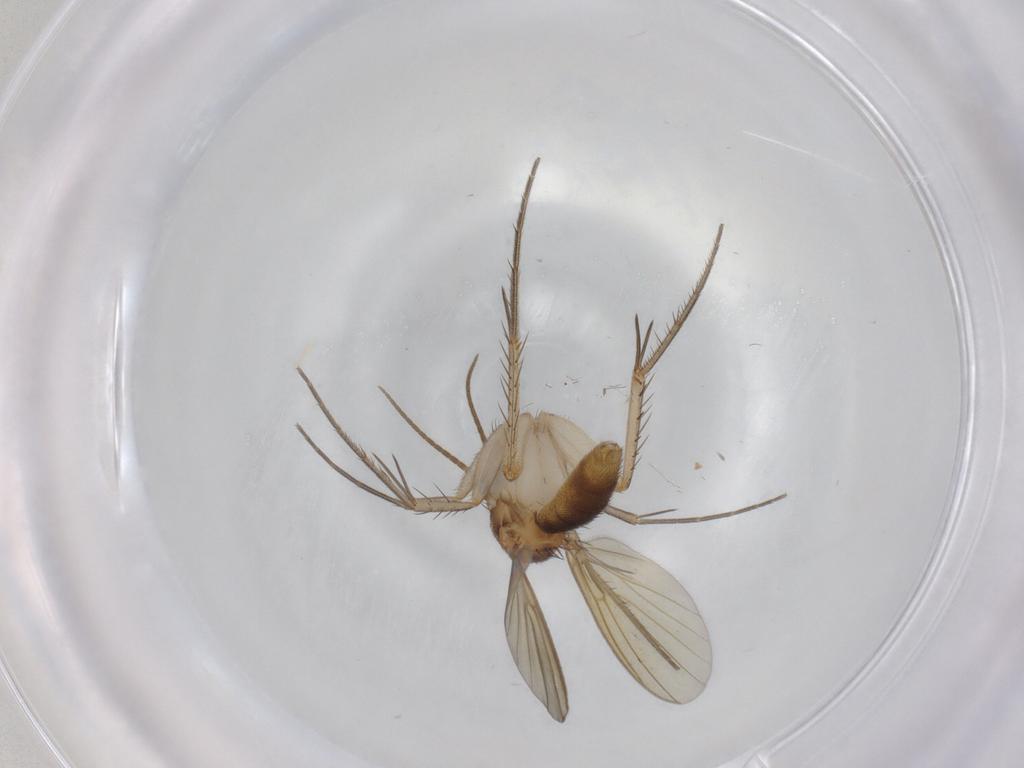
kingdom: Animalia
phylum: Arthropoda
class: Insecta
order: Diptera
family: Mycetophilidae
